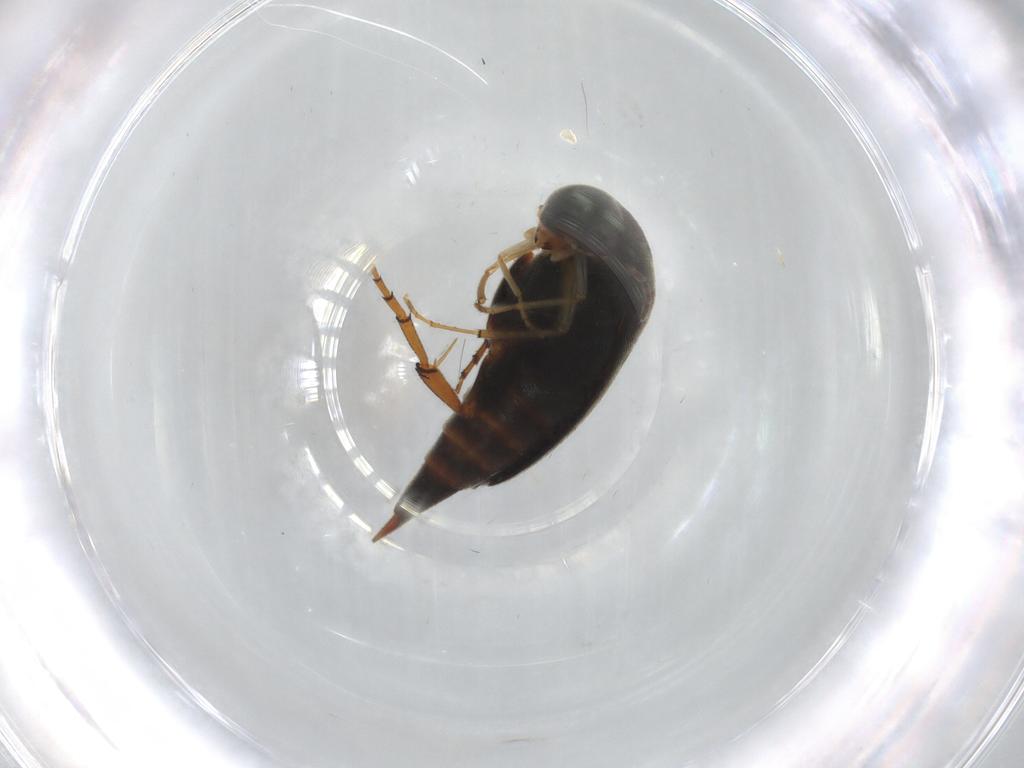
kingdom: Animalia
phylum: Arthropoda
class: Insecta
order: Coleoptera
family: Mordellidae
